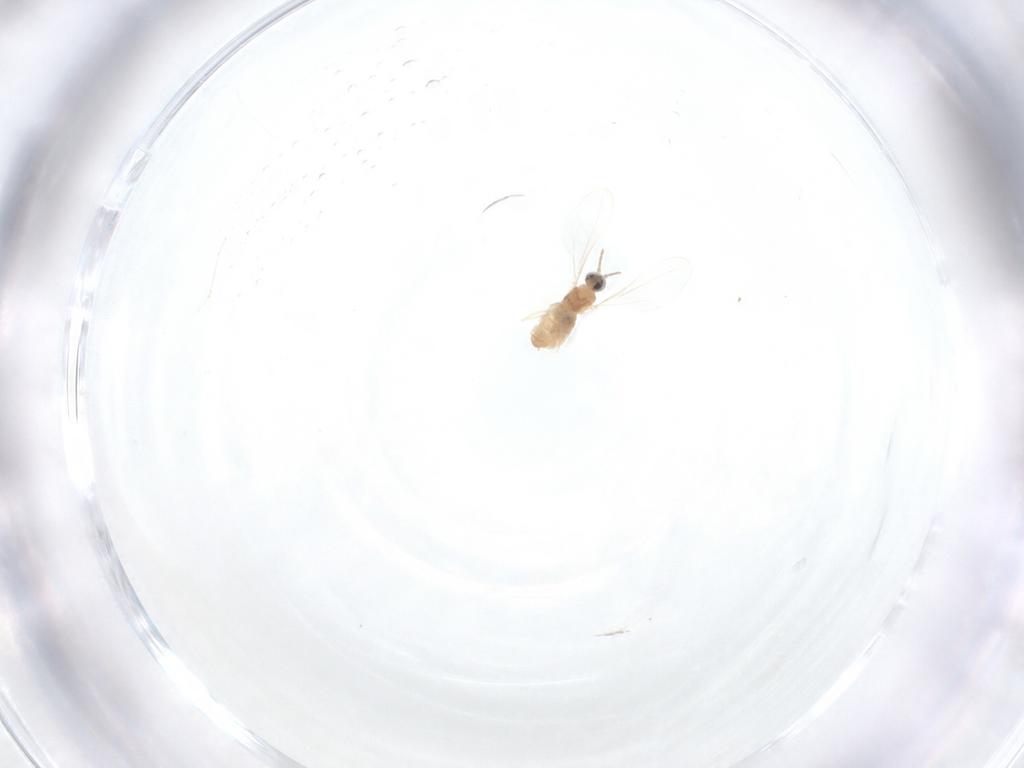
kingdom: Animalia
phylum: Arthropoda
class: Insecta
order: Diptera
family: Cecidomyiidae
